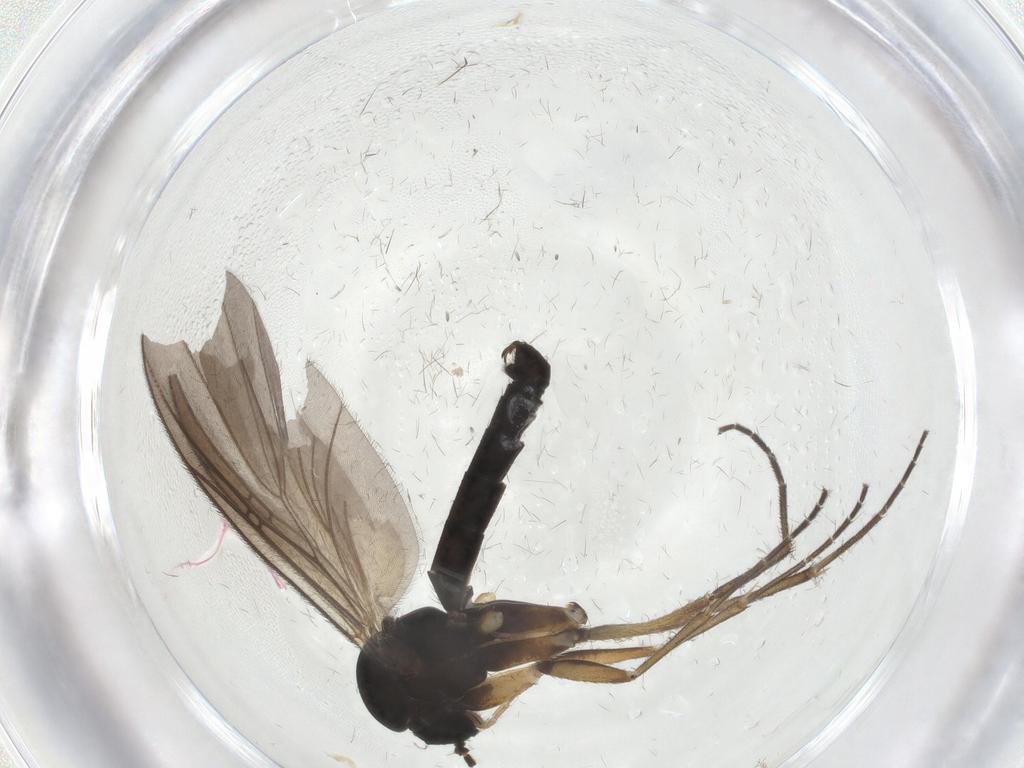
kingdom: Animalia
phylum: Arthropoda
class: Insecta
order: Diptera
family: Mycetophilidae
